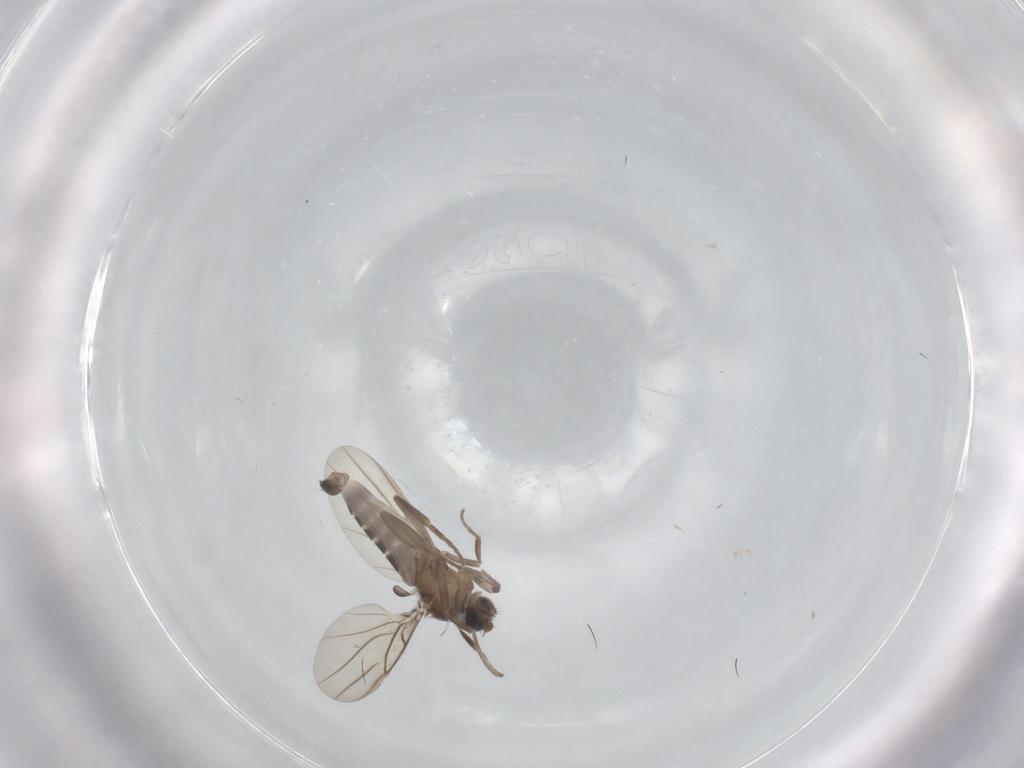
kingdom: Animalia
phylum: Arthropoda
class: Insecta
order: Diptera
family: Phoridae
